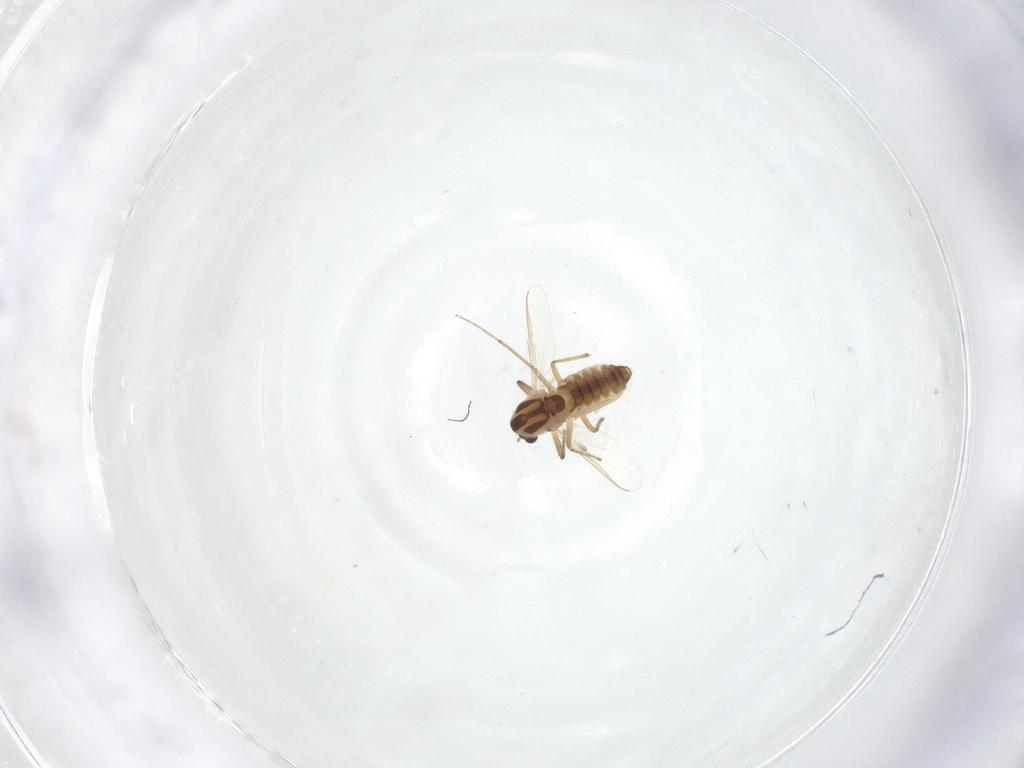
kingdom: Animalia
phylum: Arthropoda
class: Insecta
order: Diptera
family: Chironomidae
